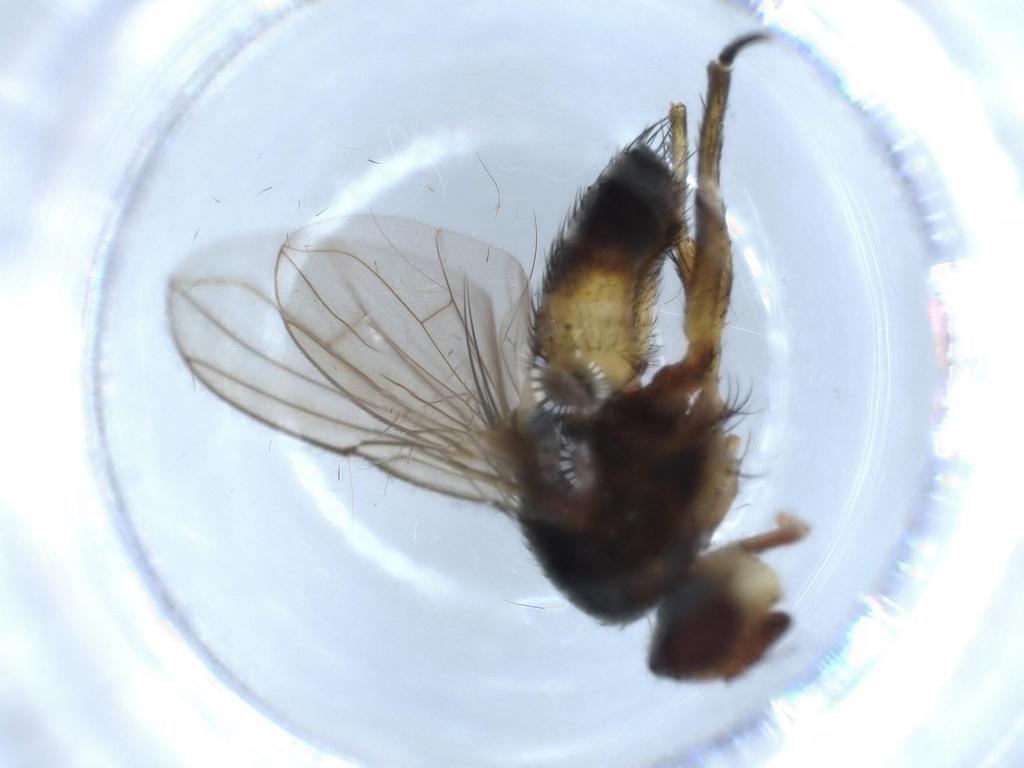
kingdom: Animalia
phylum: Arthropoda
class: Insecta
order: Diptera
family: Tachinidae
